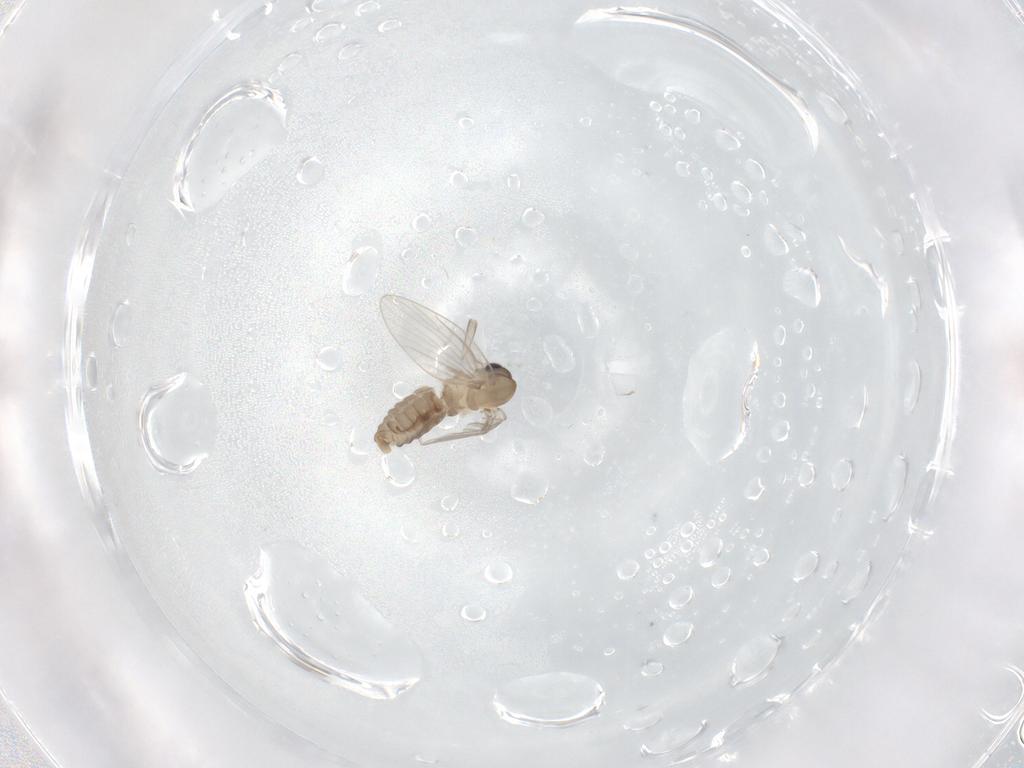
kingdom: Animalia
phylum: Arthropoda
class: Insecta
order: Diptera
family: Psychodidae
